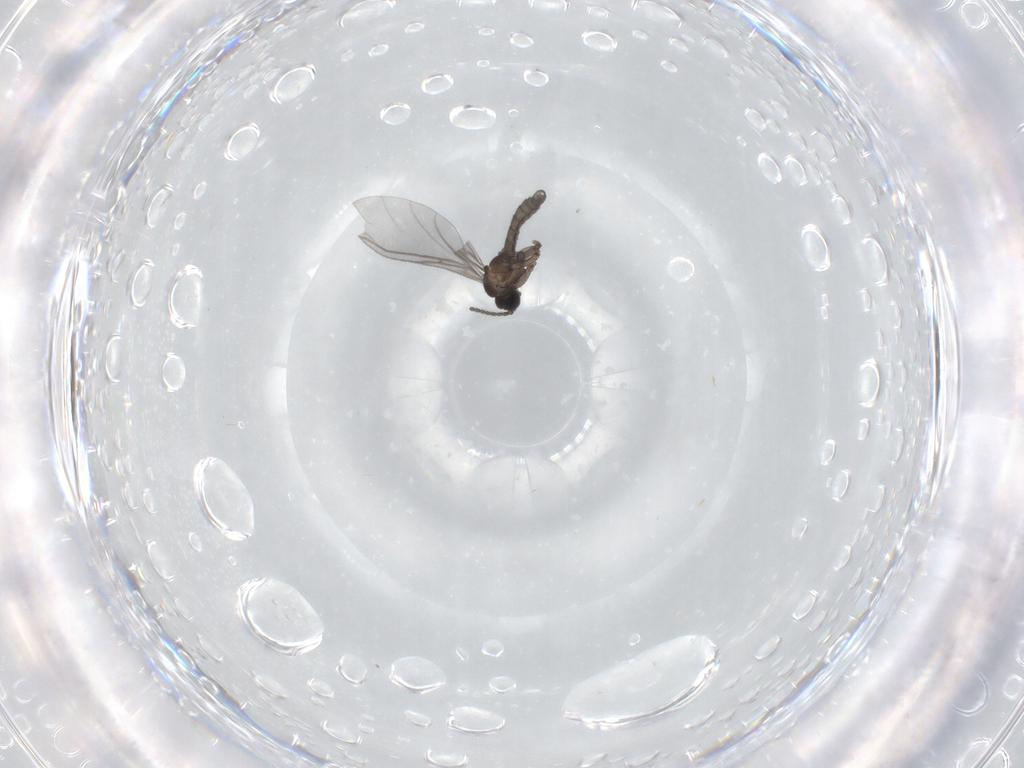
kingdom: Animalia
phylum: Arthropoda
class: Insecta
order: Diptera
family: Sciaridae
